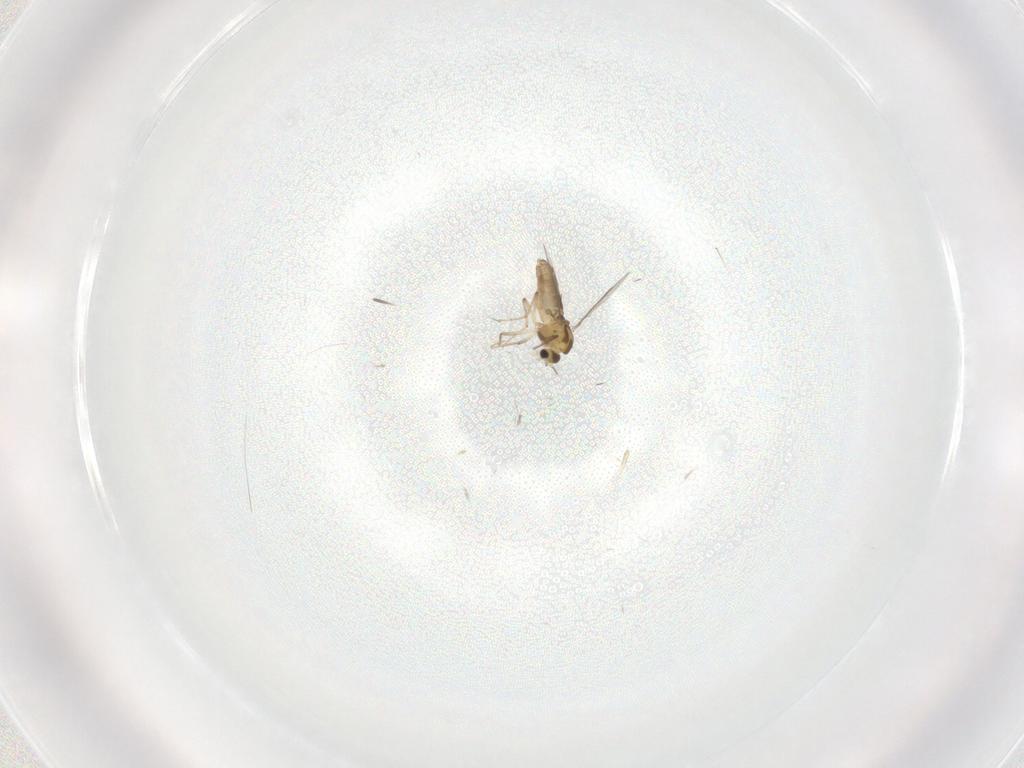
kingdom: Animalia
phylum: Arthropoda
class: Insecta
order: Diptera
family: Chironomidae
